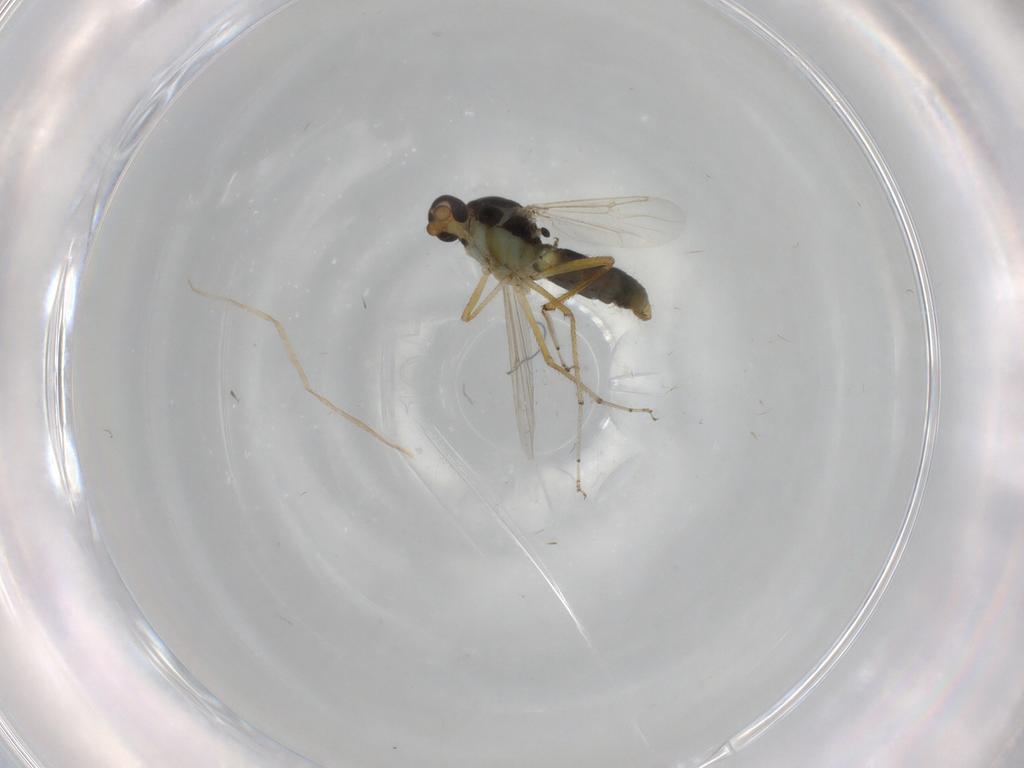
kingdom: Animalia
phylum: Arthropoda
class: Insecta
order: Diptera
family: Ceratopogonidae
